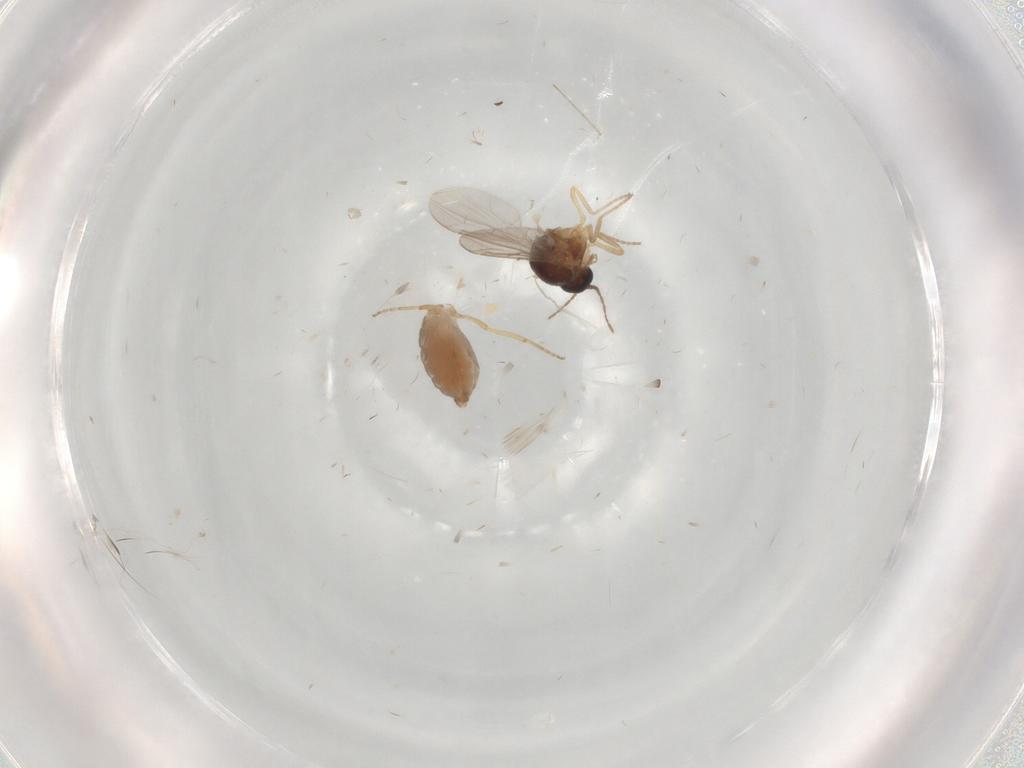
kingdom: Animalia
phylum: Arthropoda
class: Insecta
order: Diptera
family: Ceratopogonidae
